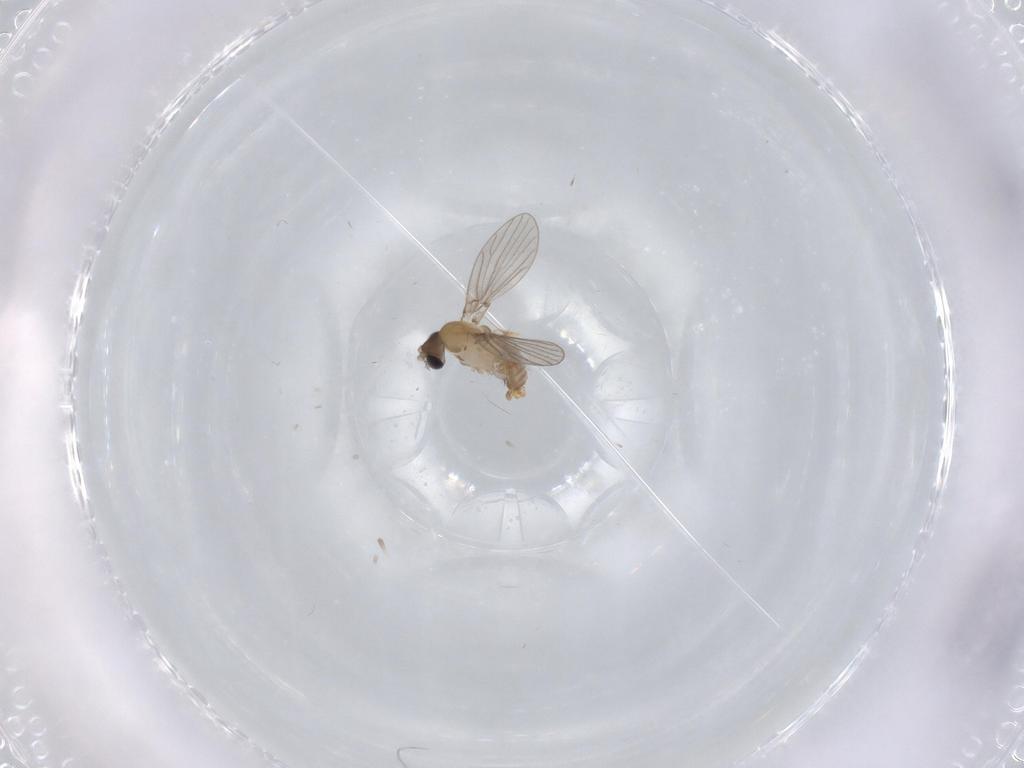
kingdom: Animalia
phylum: Arthropoda
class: Insecta
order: Diptera
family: Psychodidae
